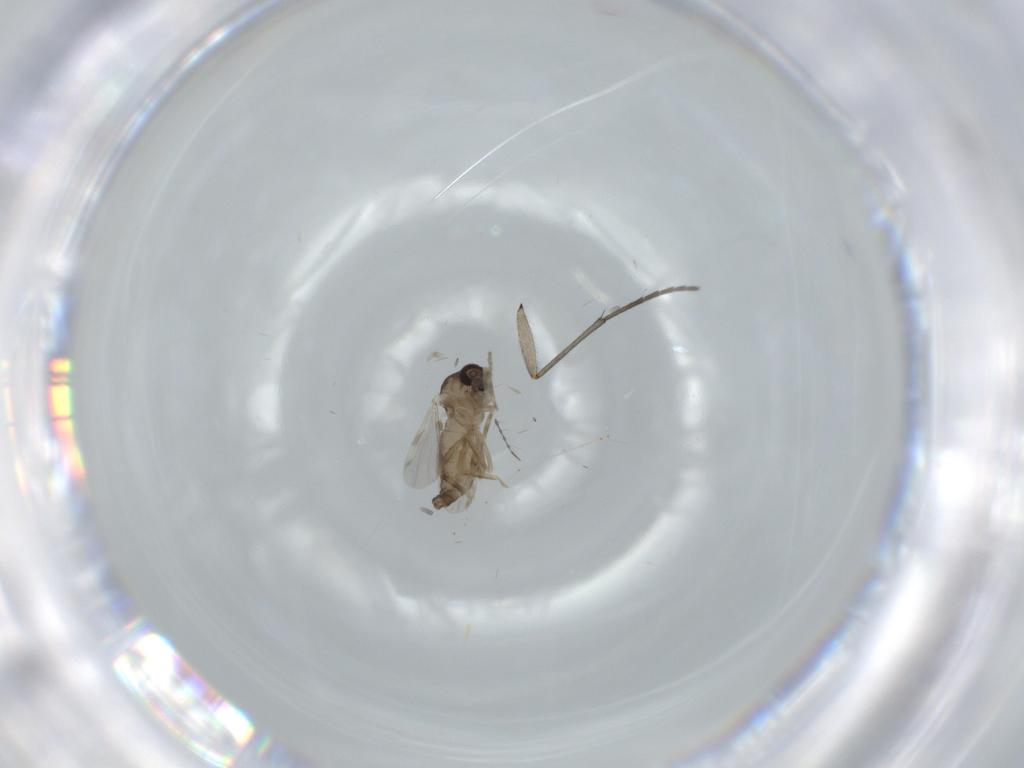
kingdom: Animalia
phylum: Arthropoda
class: Insecta
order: Diptera
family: Ceratopogonidae
